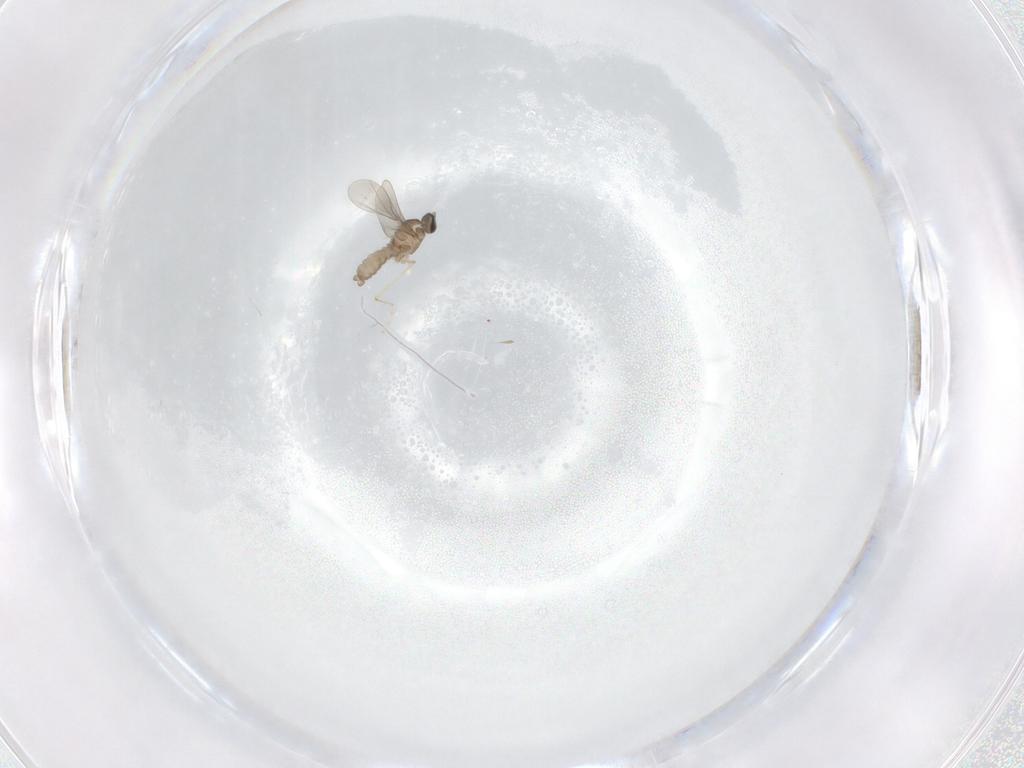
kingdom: Animalia
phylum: Arthropoda
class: Insecta
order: Diptera
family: Cecidomyiidae
